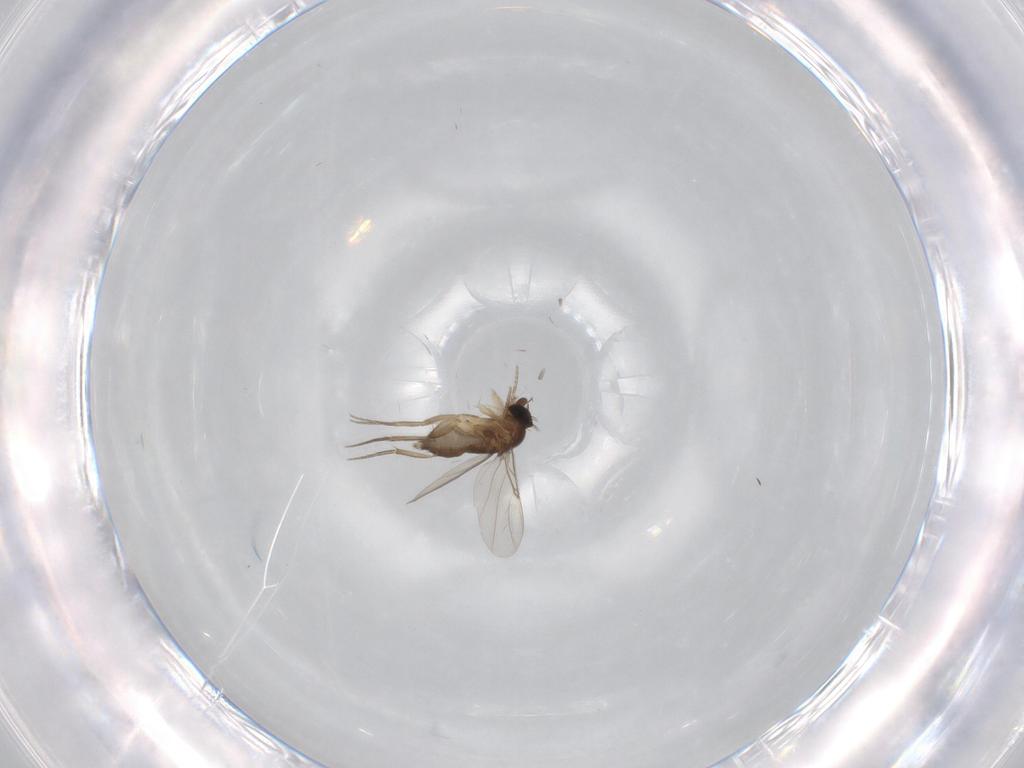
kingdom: Animalia
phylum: Arthropoda
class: Insecta
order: Diptera
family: Phoridae
